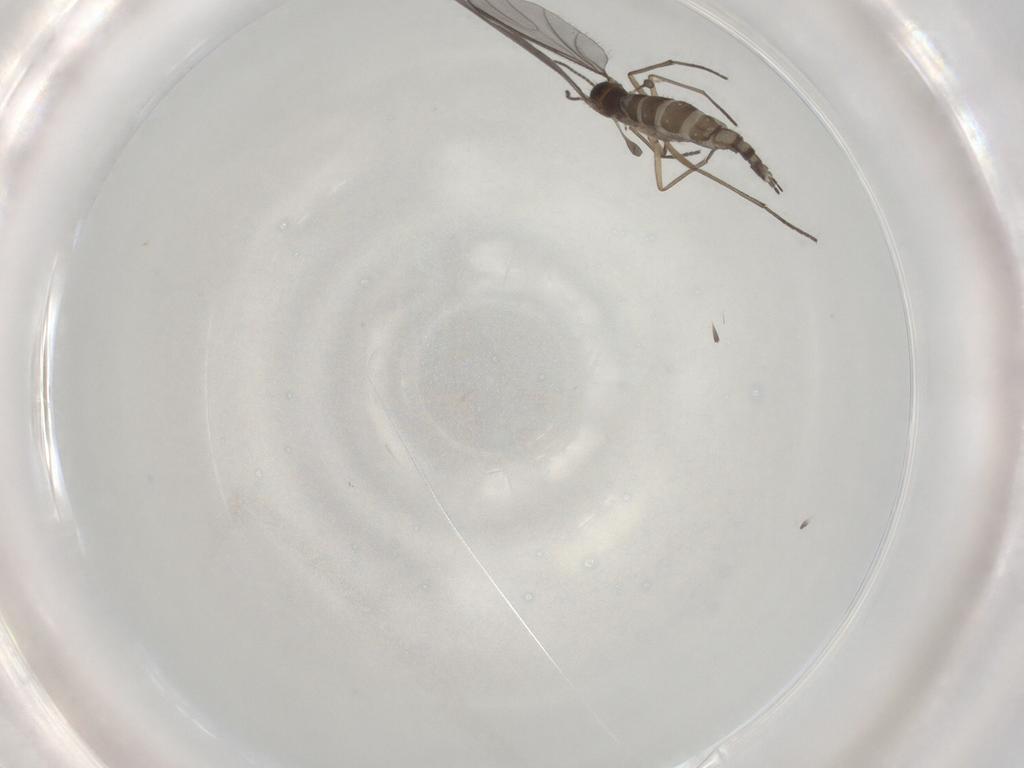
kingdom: Animalia
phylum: Arthropoda
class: Insecta
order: Diptera
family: Sciaridae
